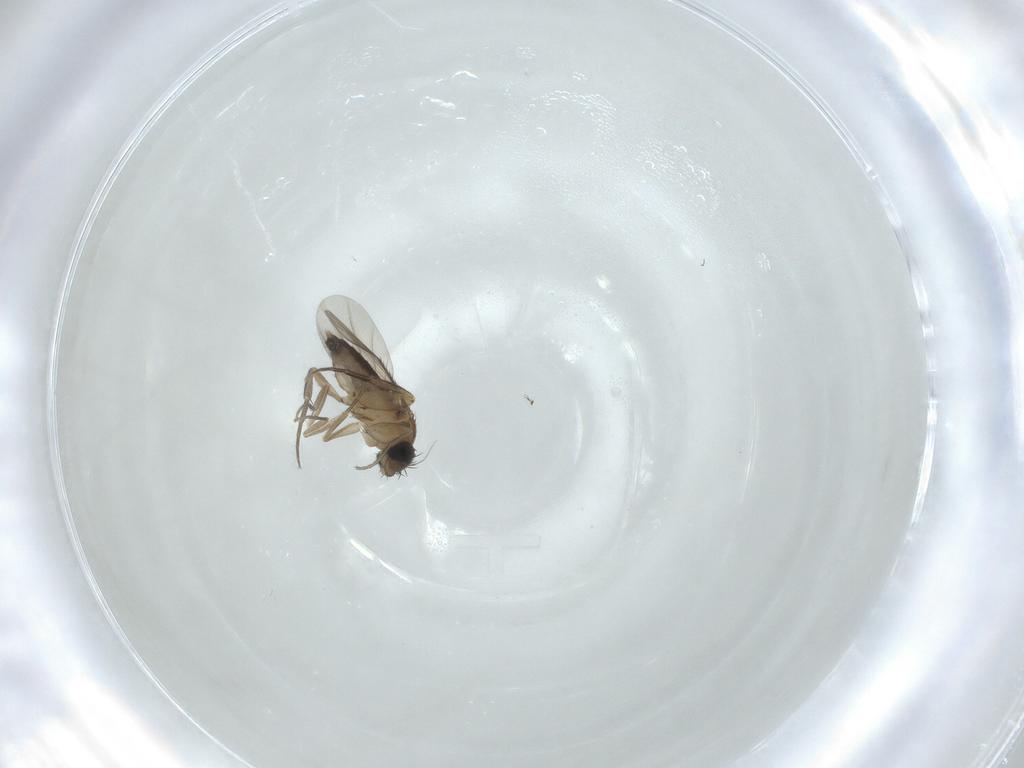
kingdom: Animalia
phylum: Arthropoda
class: Insecta
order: Diptera
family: Phoridae
